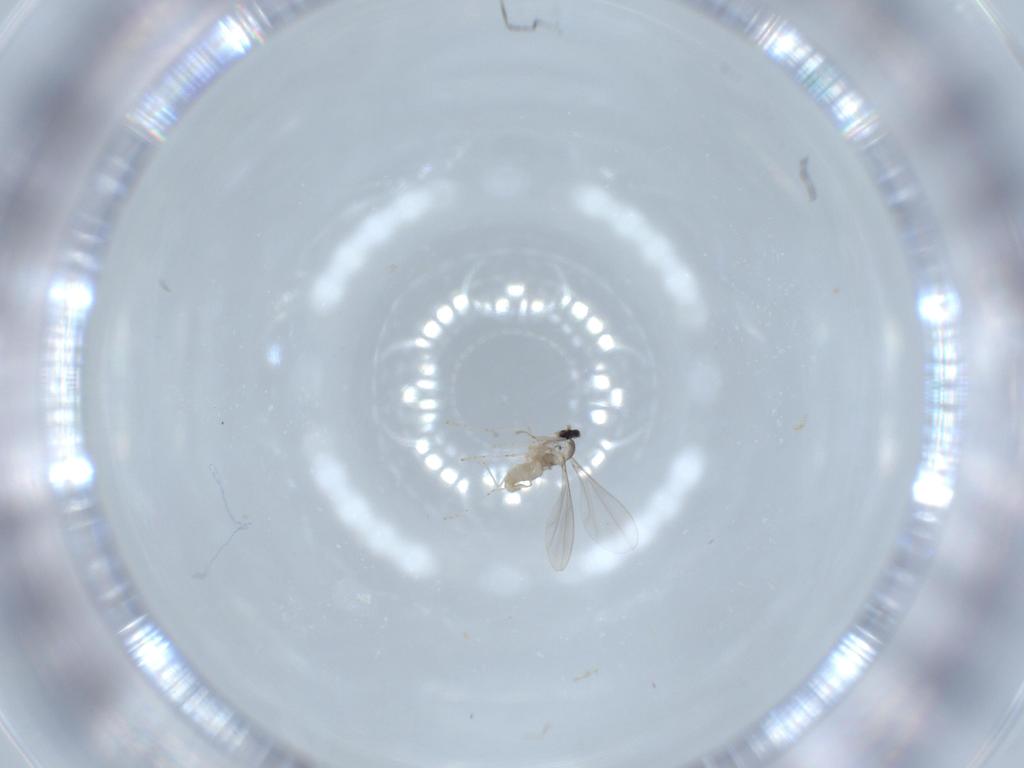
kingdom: Animalia
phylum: Arthropoda
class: Insecta
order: Diptera
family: Cecidomyiidae
